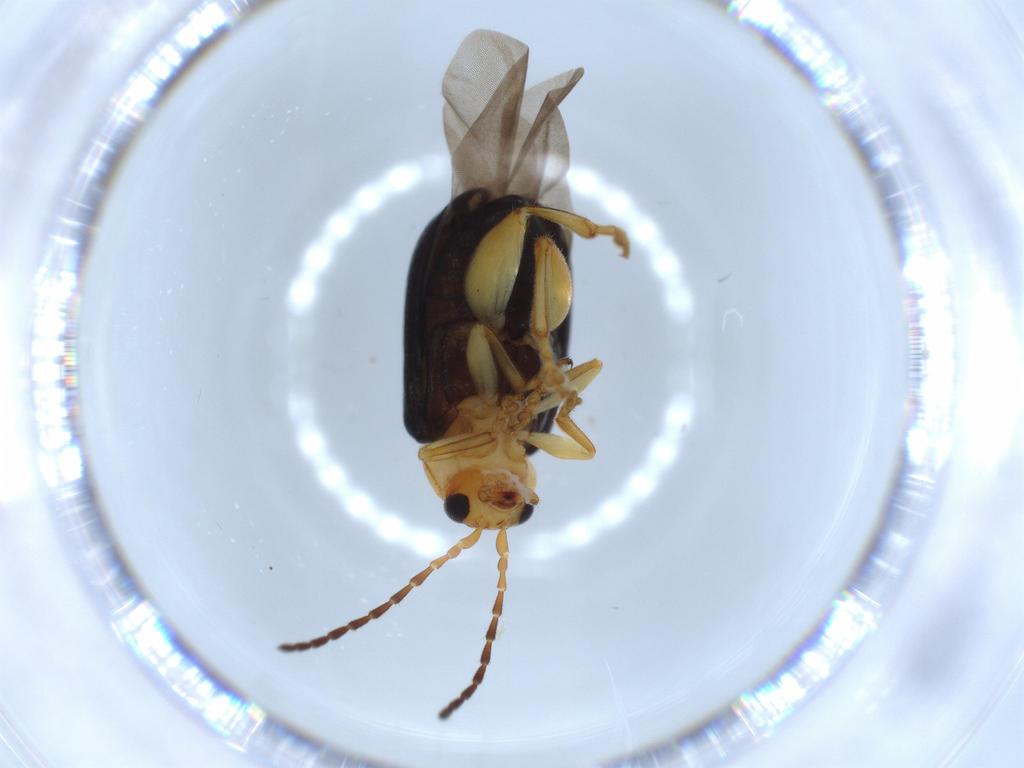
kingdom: Animalia
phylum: Arthropoda
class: Insecta
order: Coleoptera
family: Chrysomelidae
